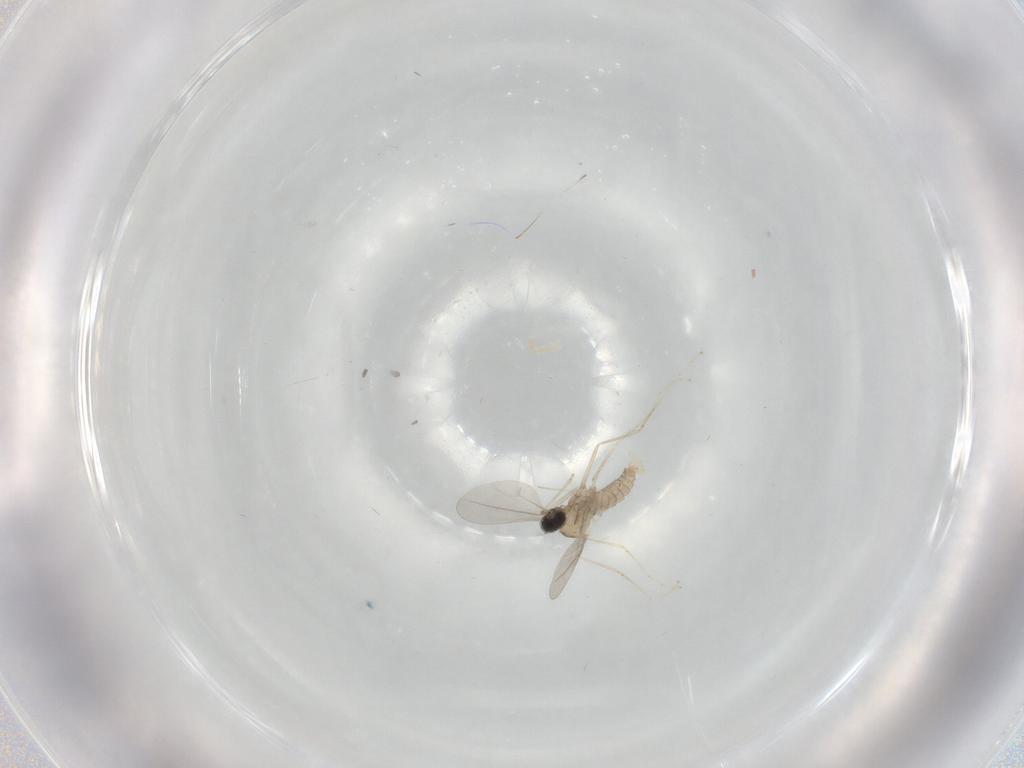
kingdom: Animalia
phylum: Arthropoda
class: Insecta
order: Diptera
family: Cecidomyiidae
